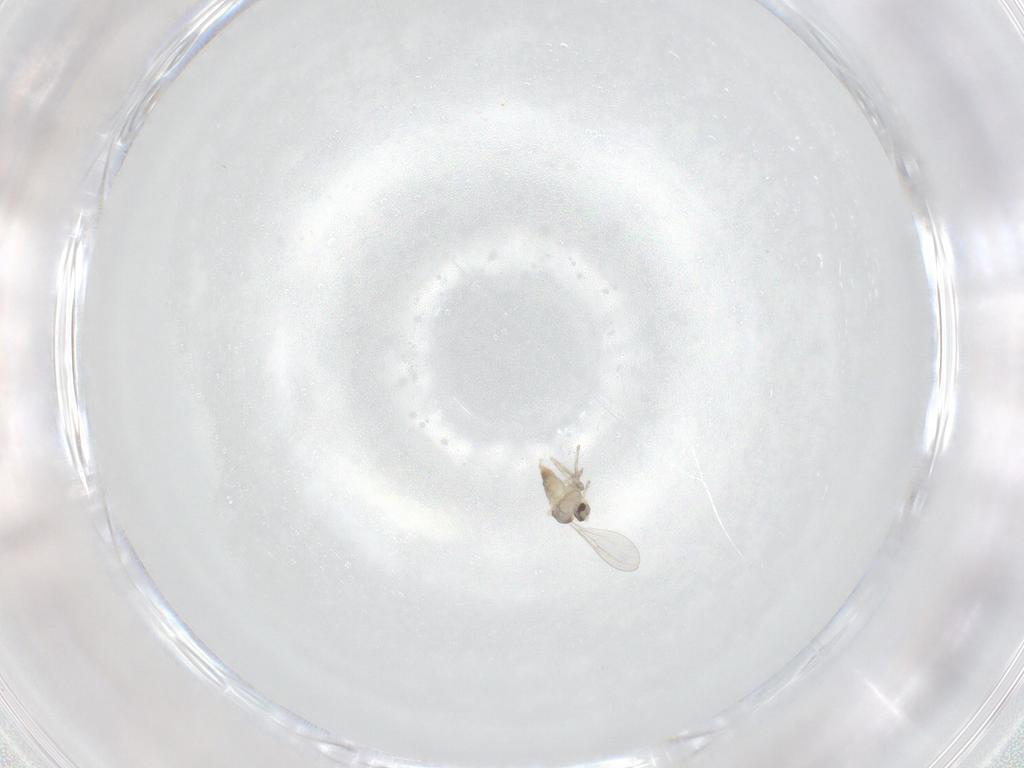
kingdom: Animalia
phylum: Arthropoda
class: Insecta
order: Diptera
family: Cecidomyiidae
